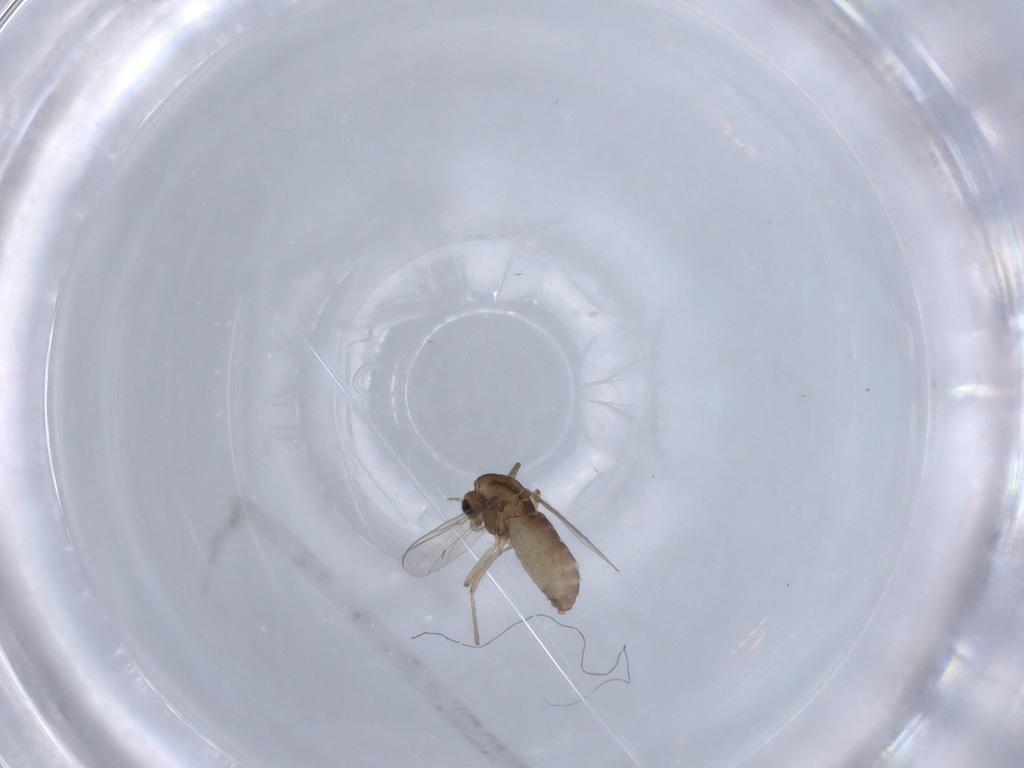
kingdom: Animalia
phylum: Arthropoda
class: Insecta
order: Diptera
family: Chironomidae
